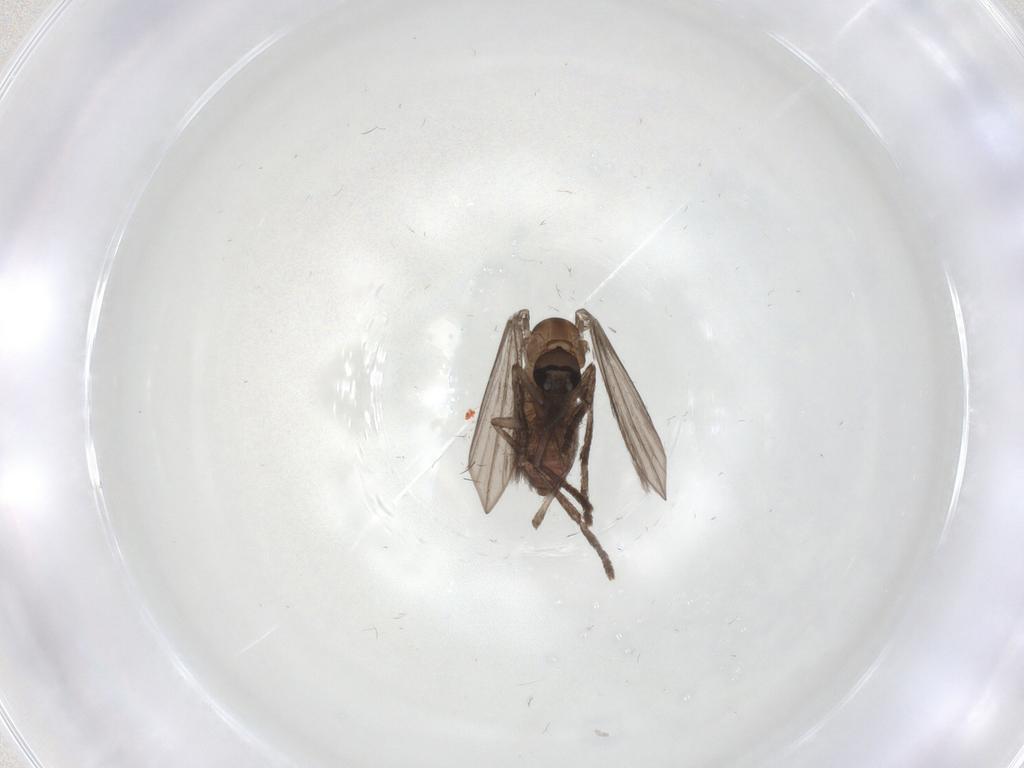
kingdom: Animalia
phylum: Arthropoda
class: Insecta
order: Diptera
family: Psychodidae
